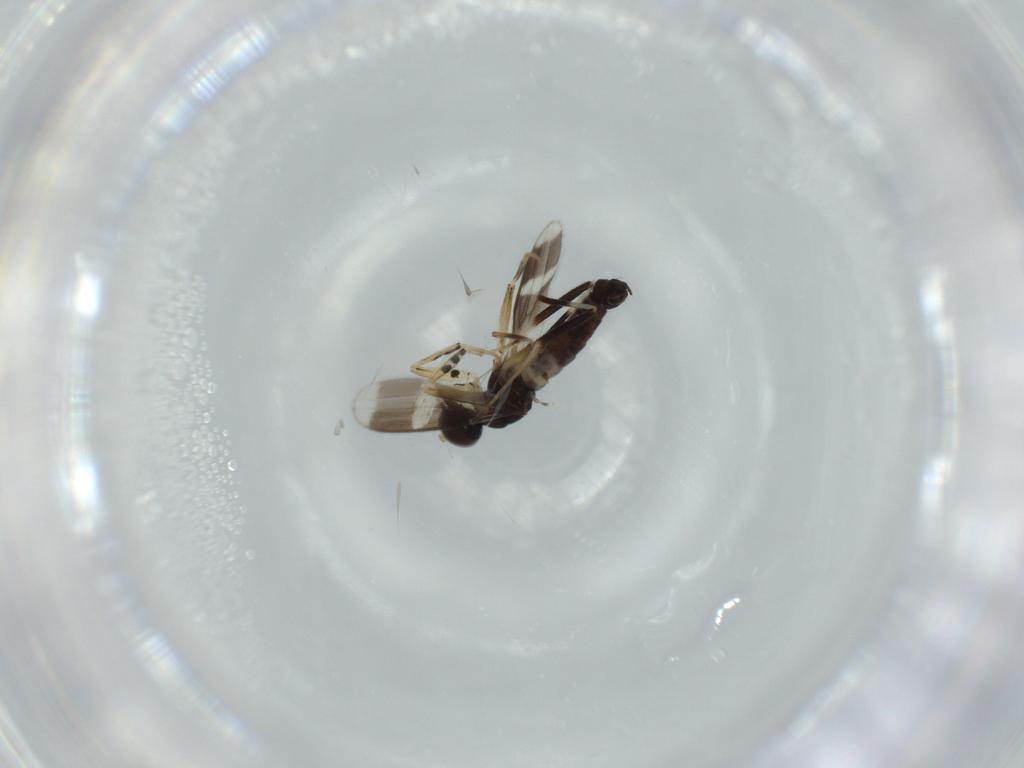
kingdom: Animalia
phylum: Arthropoda
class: Insecta
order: Diptera
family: Hybotidae
